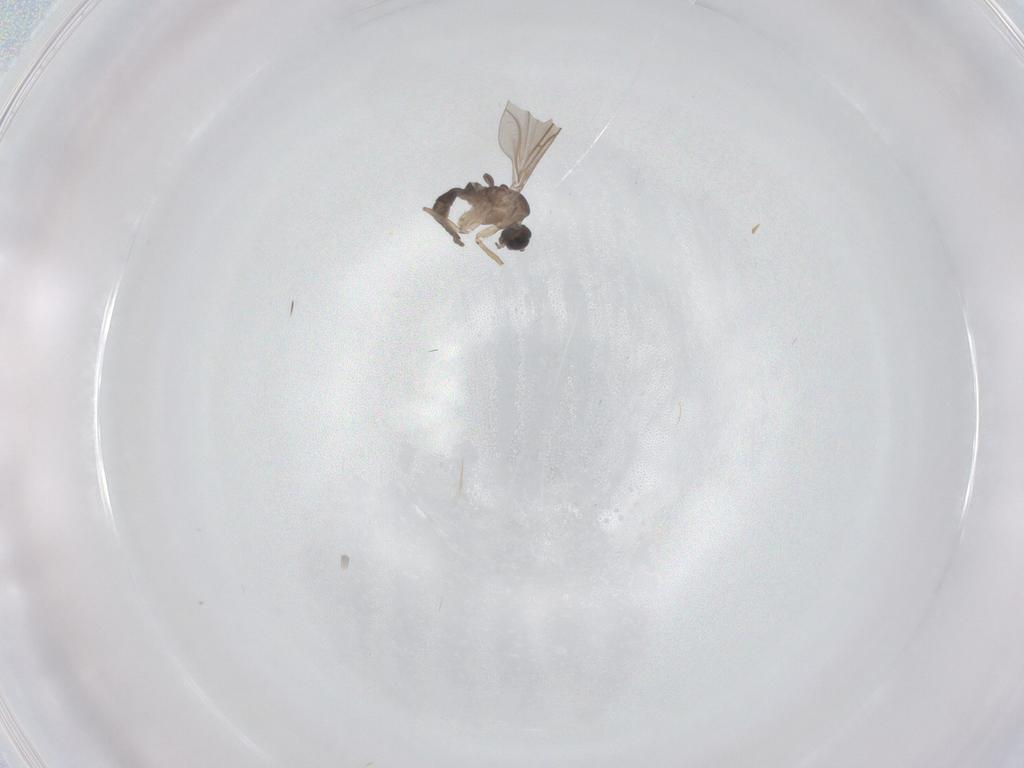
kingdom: Animalia
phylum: Arthropoda
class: Insecta
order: Diptera
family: Sciaridae
